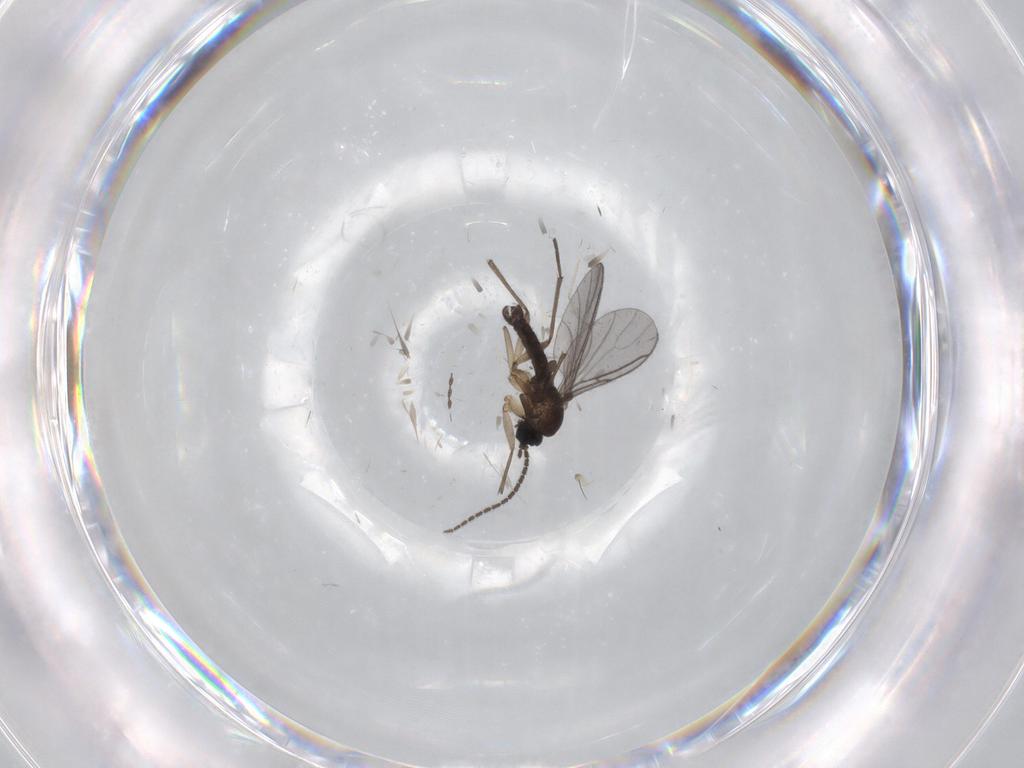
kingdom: Animalia
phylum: Arthropoda
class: Insecta
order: Diptera
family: Sciaridae
